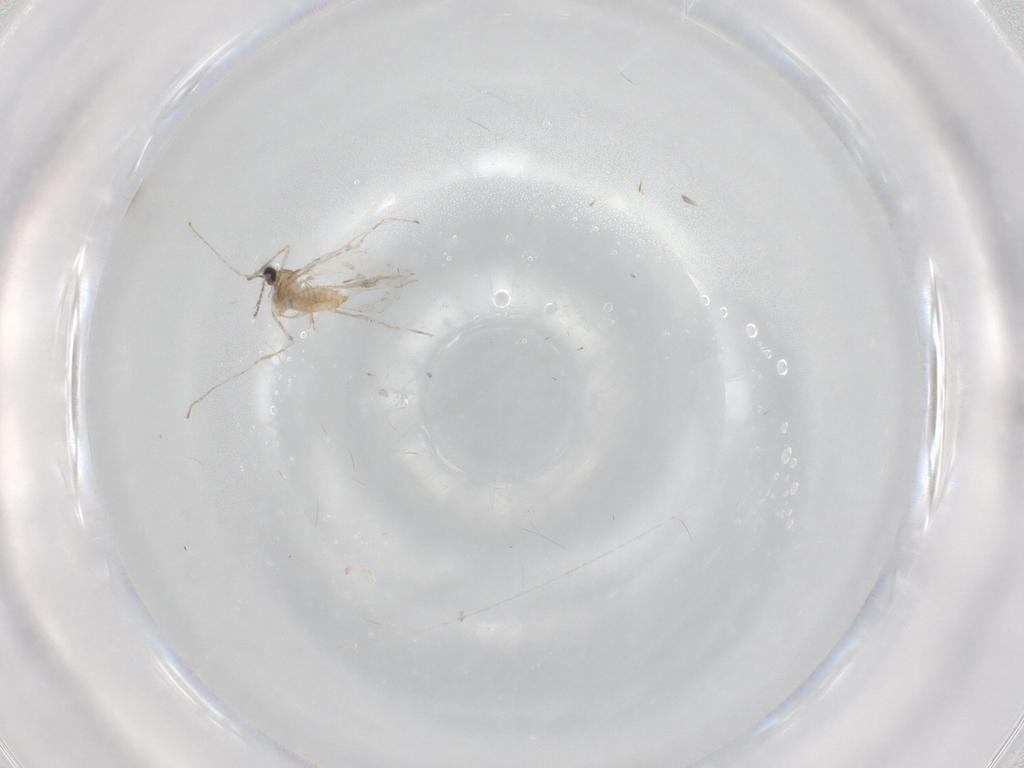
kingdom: Animalia
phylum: Arthropoda
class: Insecta
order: Diptera
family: Cecidomyiidae
